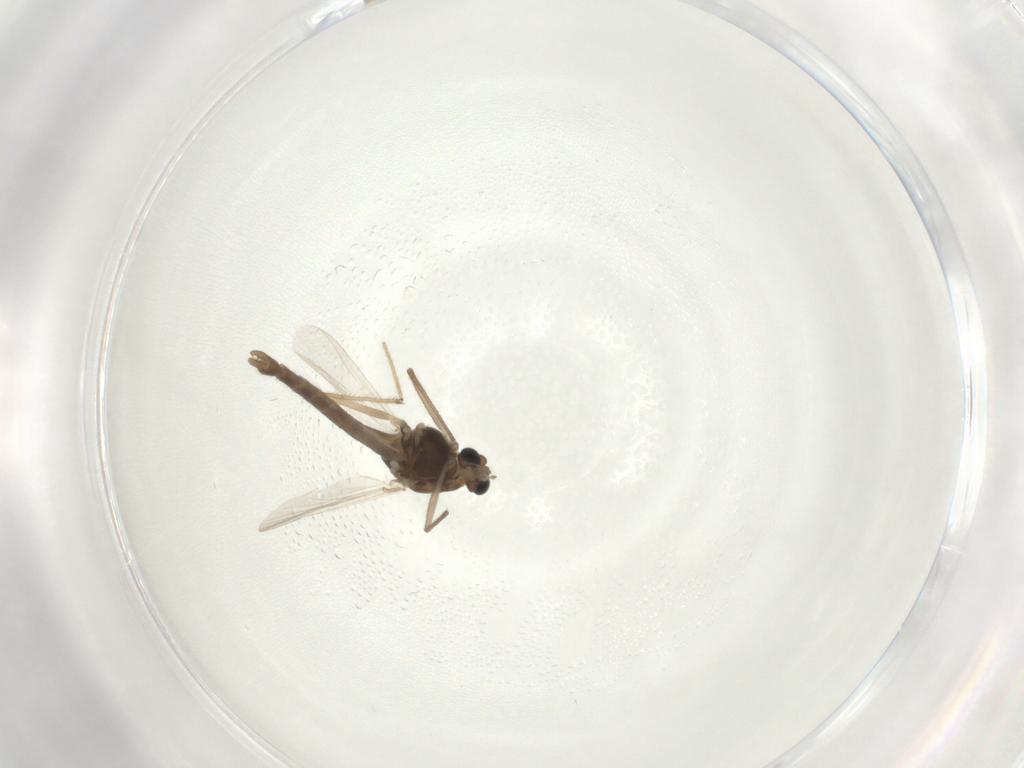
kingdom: Animalia
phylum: Arthropoda
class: Insecta
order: Diptera
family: Chironomidae
